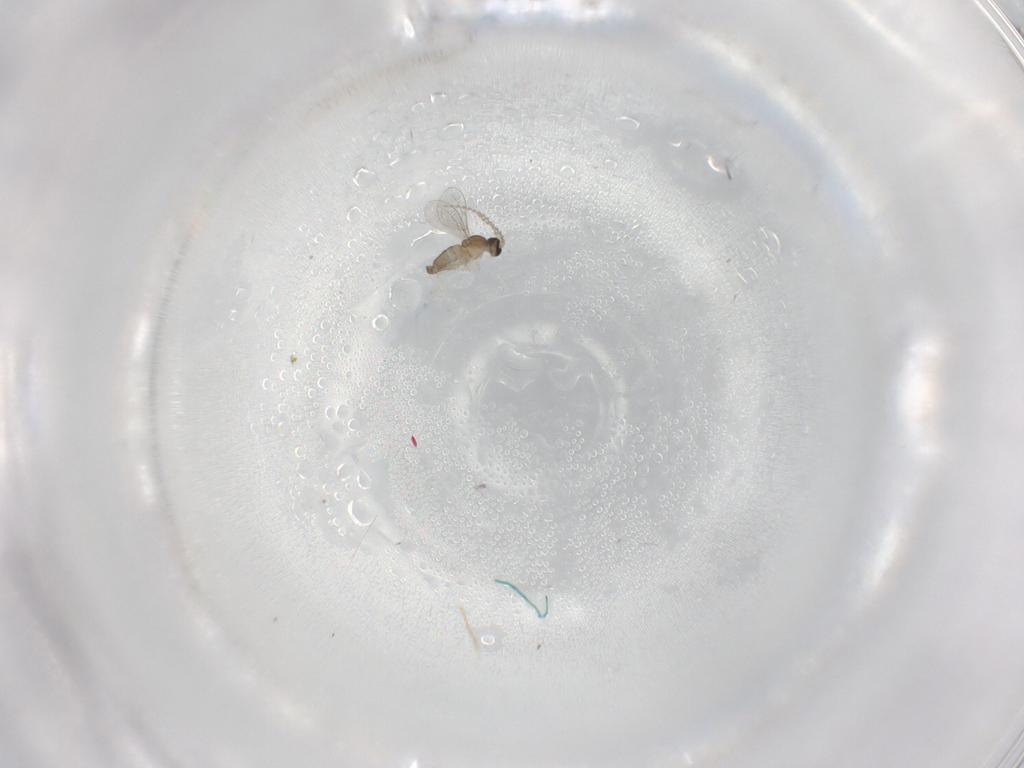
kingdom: Animalia
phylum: Arthropoda
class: Insecta
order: Diptera
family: Cecidomyiidae
